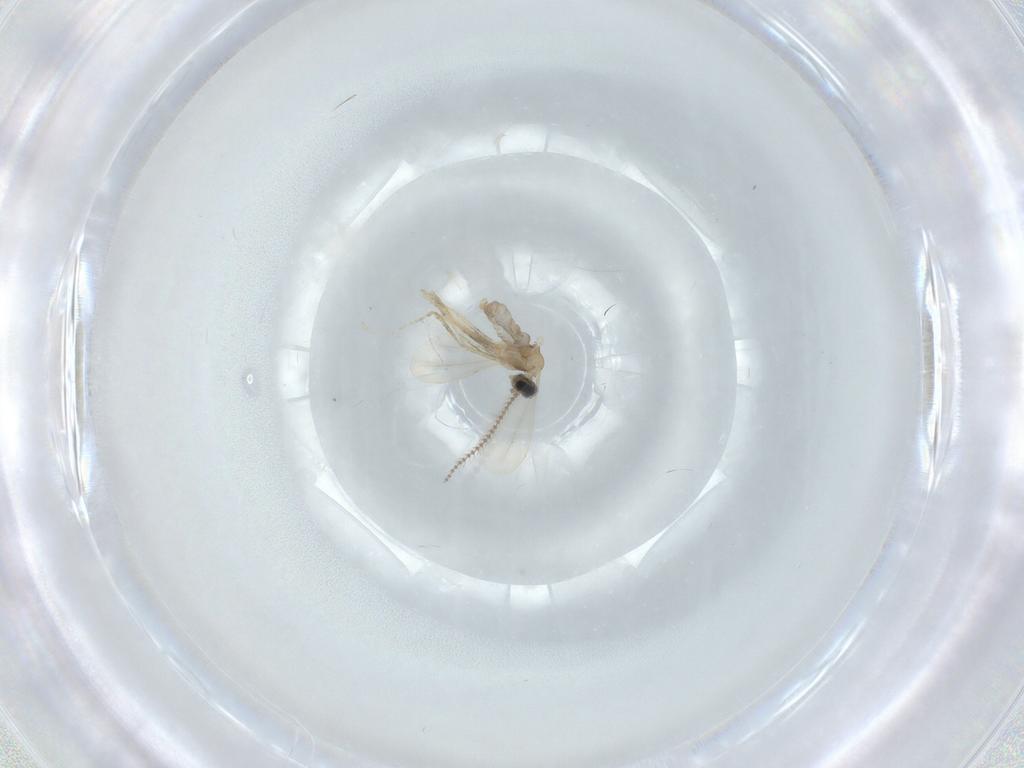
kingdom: Animalia
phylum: Arthropoda
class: Insecta
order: Diptera
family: Cecidomyiidae
